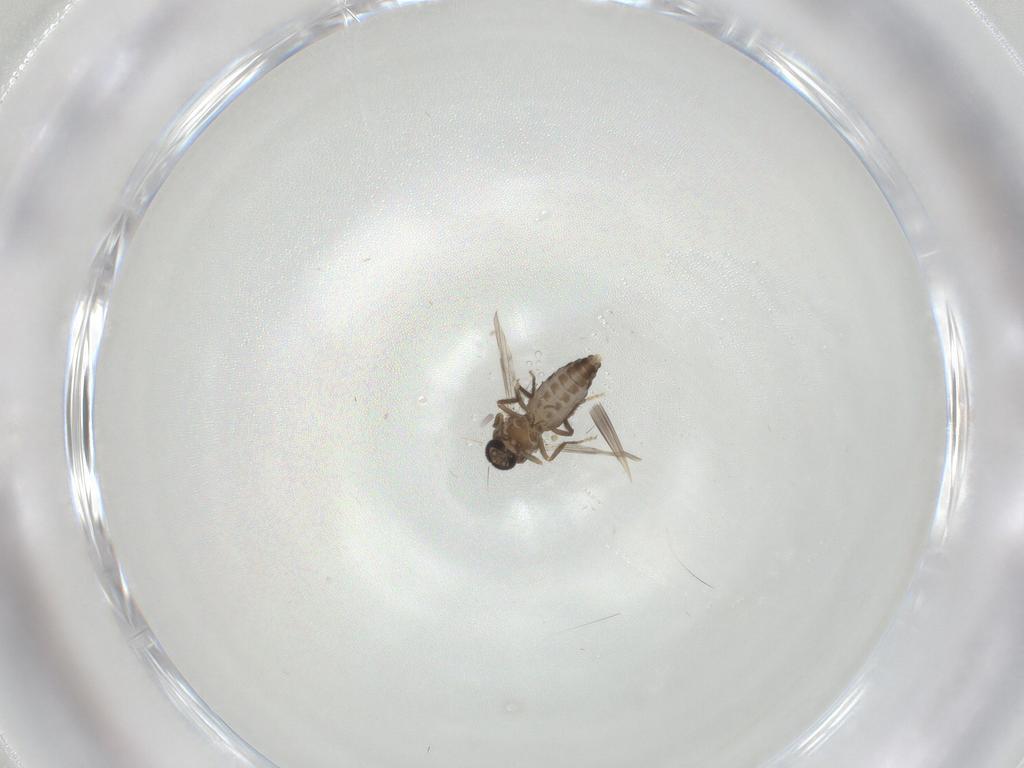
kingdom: Animalia
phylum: Arthropoda
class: Insecta
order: Diptera
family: Ceratopogonidae
